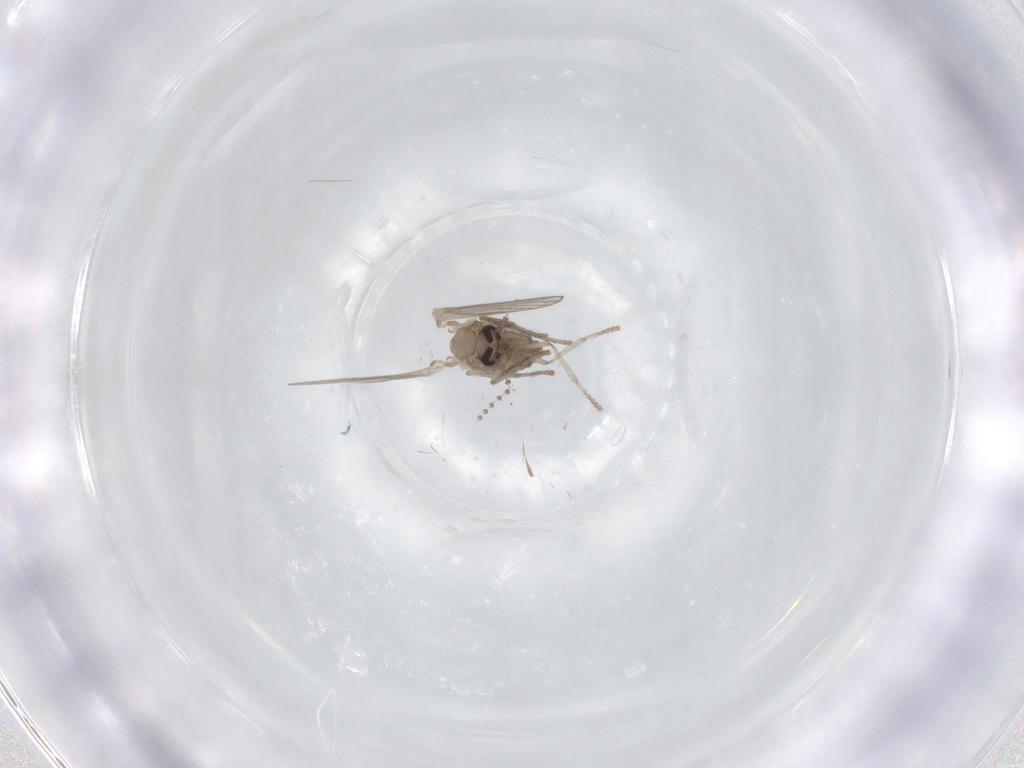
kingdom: Animalia
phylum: Arthropoda
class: Insecta
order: Diptera
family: Psychodidae
